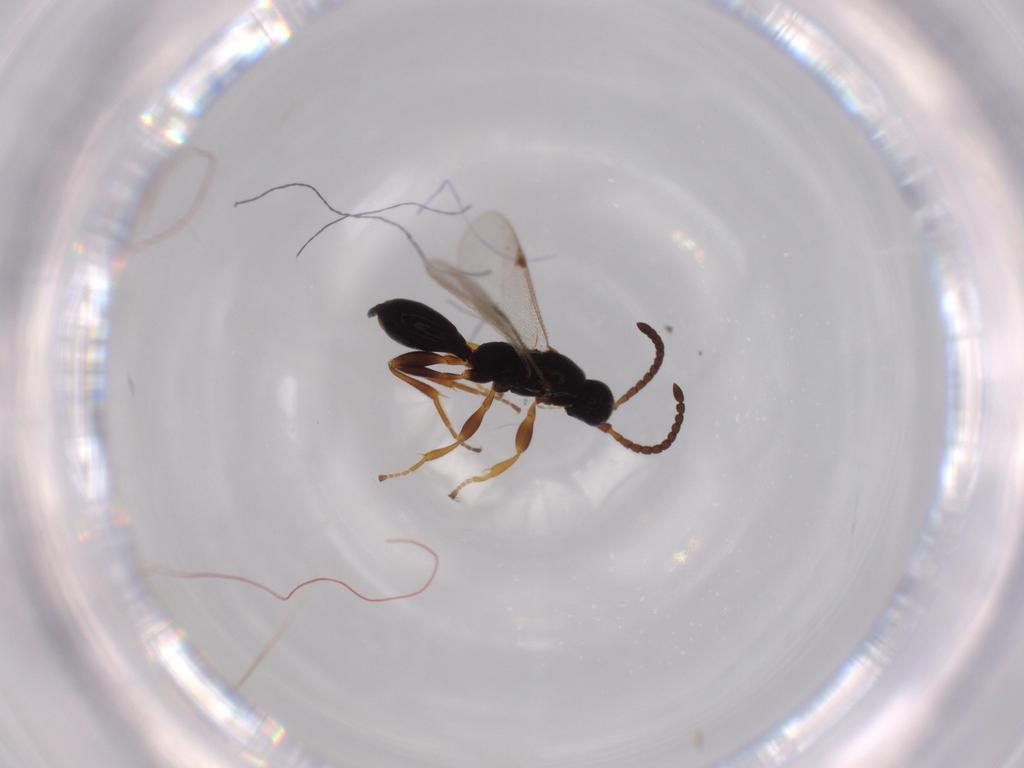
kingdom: Animalia
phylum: Arthropoda
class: Insecta
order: Hymenoptera
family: Proctotrupidae
